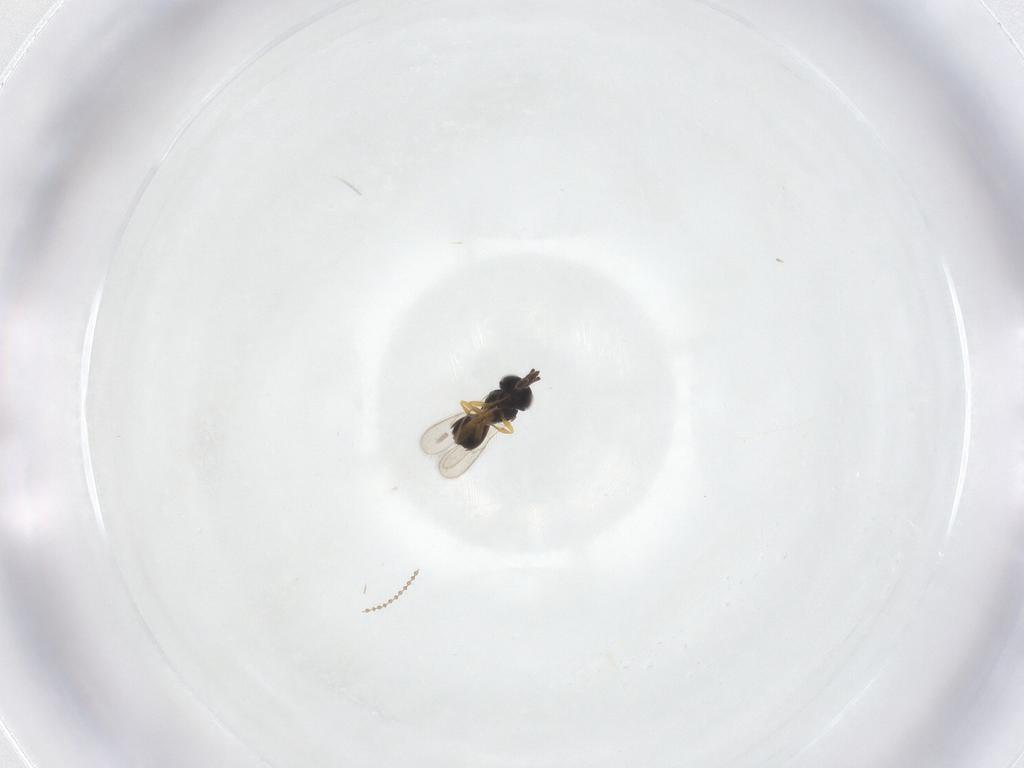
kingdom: Animalia
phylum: Arthropoda
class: Insecta
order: Hymenoptera
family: Scelionidae
